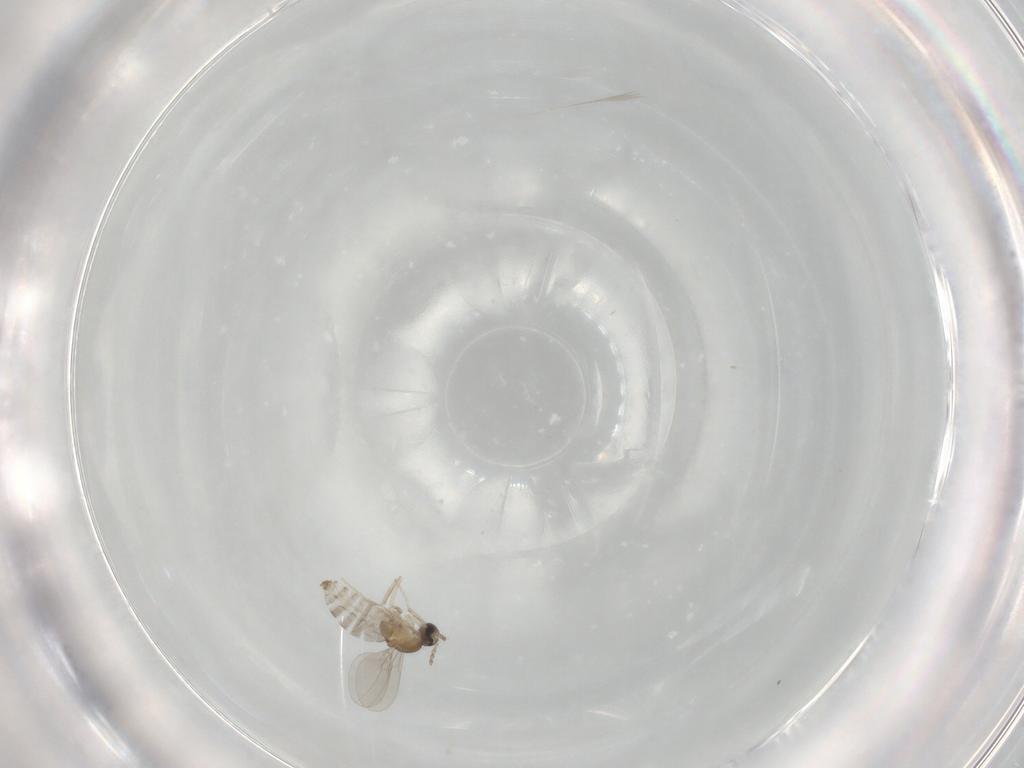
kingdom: Animalia
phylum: Arthropoda
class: Insecta
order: Diptera
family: Cecidomyiidae
